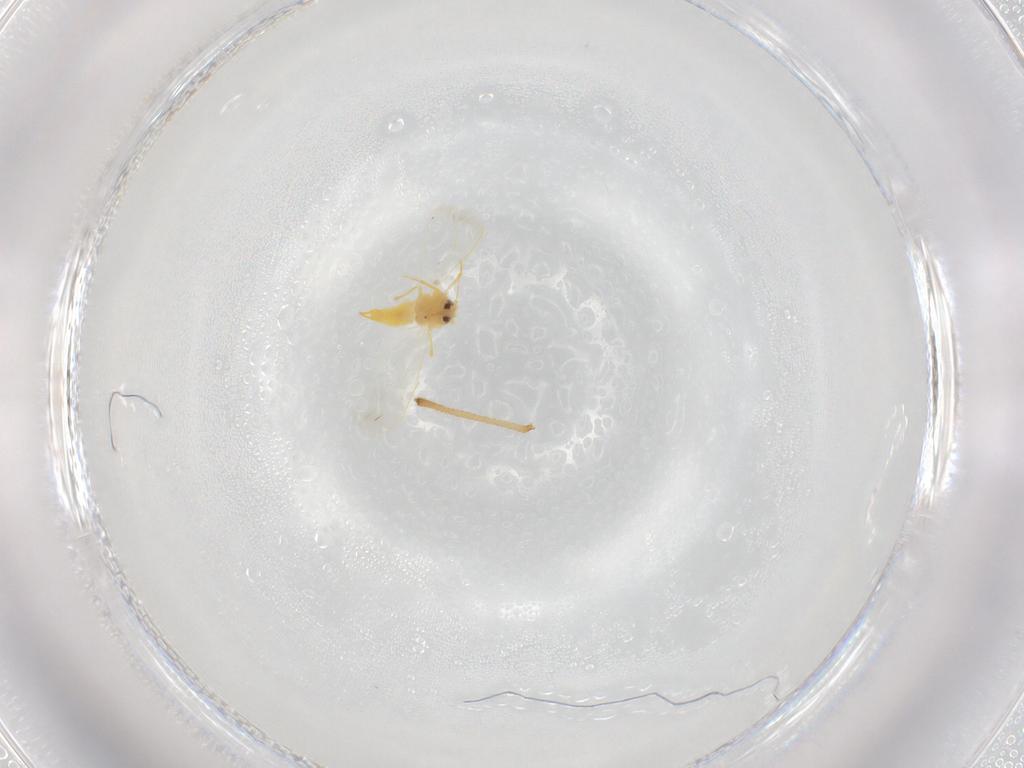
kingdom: Animalia
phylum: Arthropoda
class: Insecta
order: Hemiptera
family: Aleyrodidae
